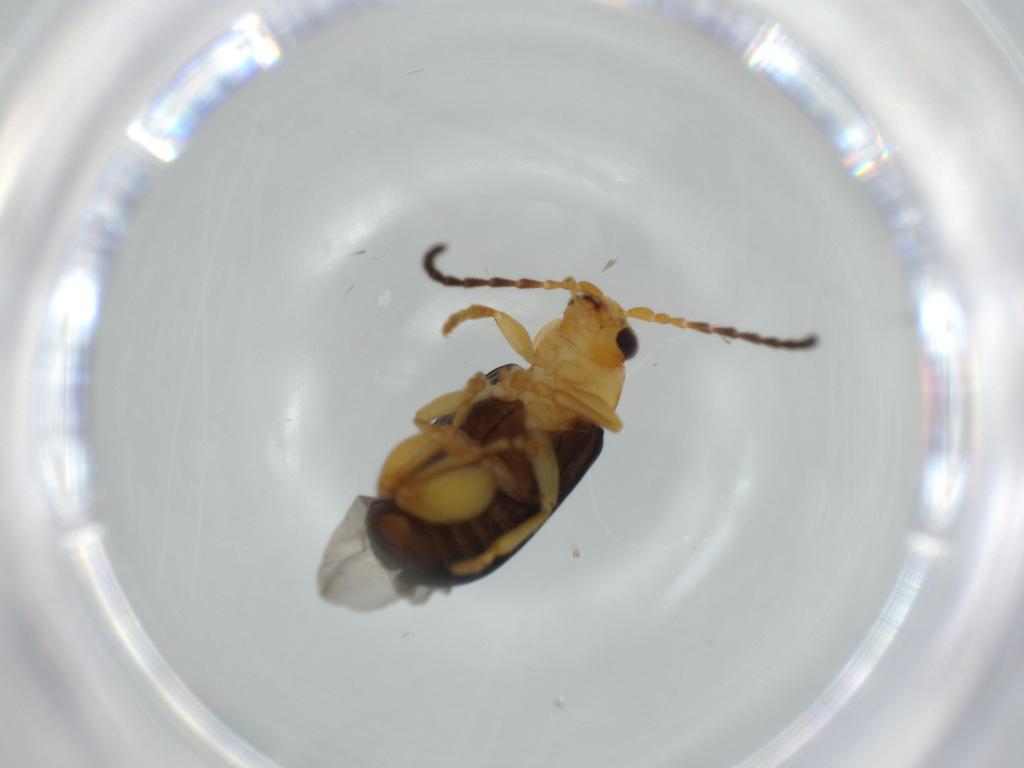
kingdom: Animalia
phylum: Arthropoda
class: Insecta
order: Coleoptera
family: Chrysomelidae
